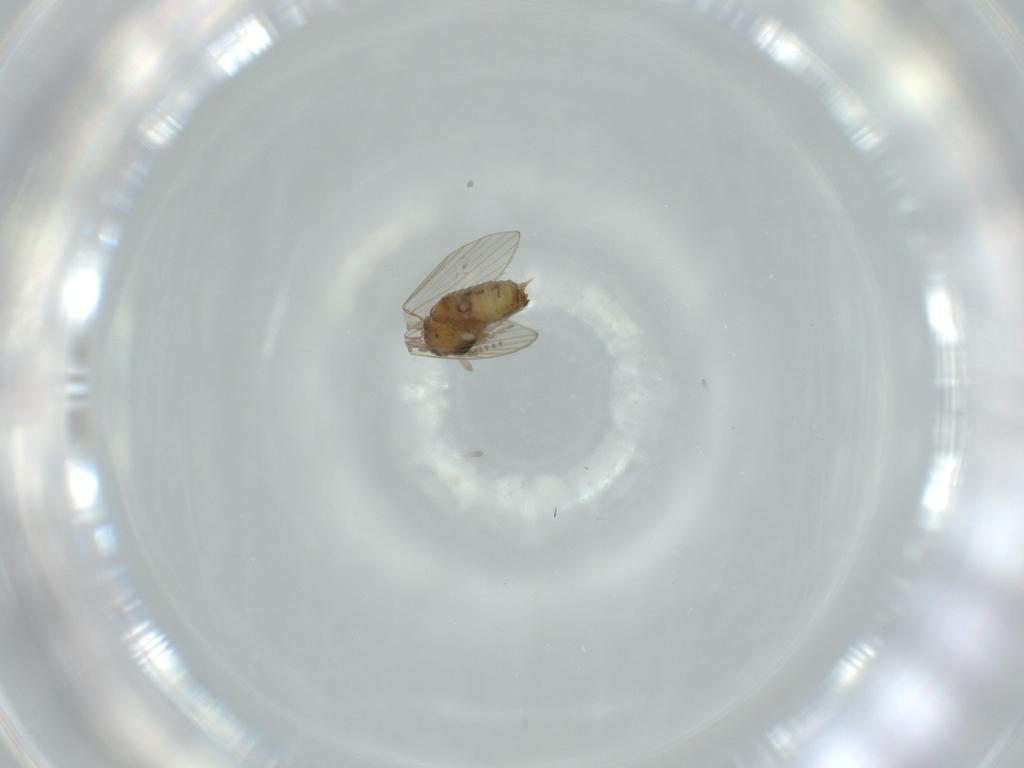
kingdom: Animalia
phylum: Arthropoda
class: Insecta
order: Diptera
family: Psychodidae
